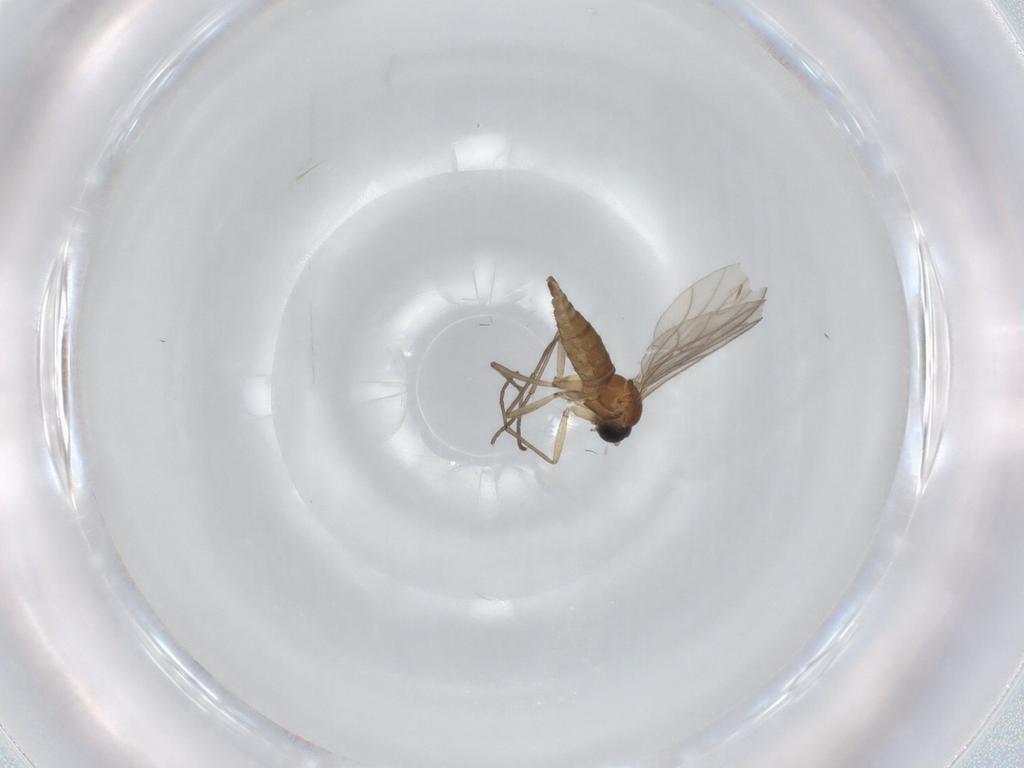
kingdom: Animalia
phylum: Arthropoda
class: Insecta
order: Diptera
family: Sciaridae
